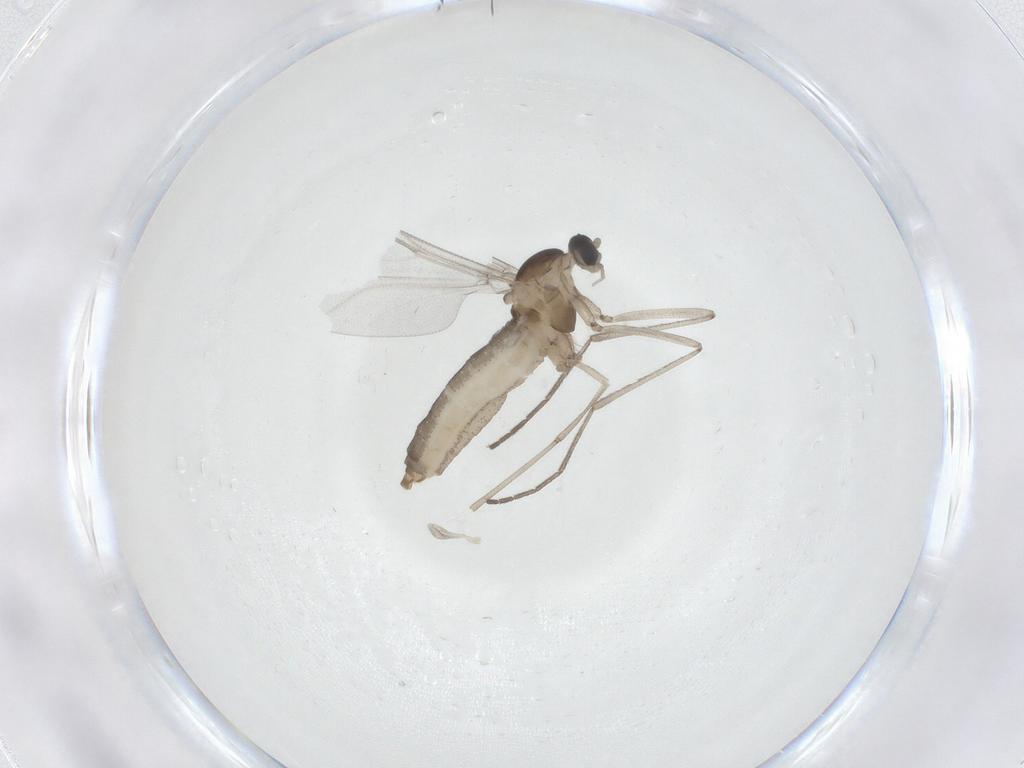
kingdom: Animalia
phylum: Arthropoda
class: Insecta
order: Diptera
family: Cecidomyiidae
